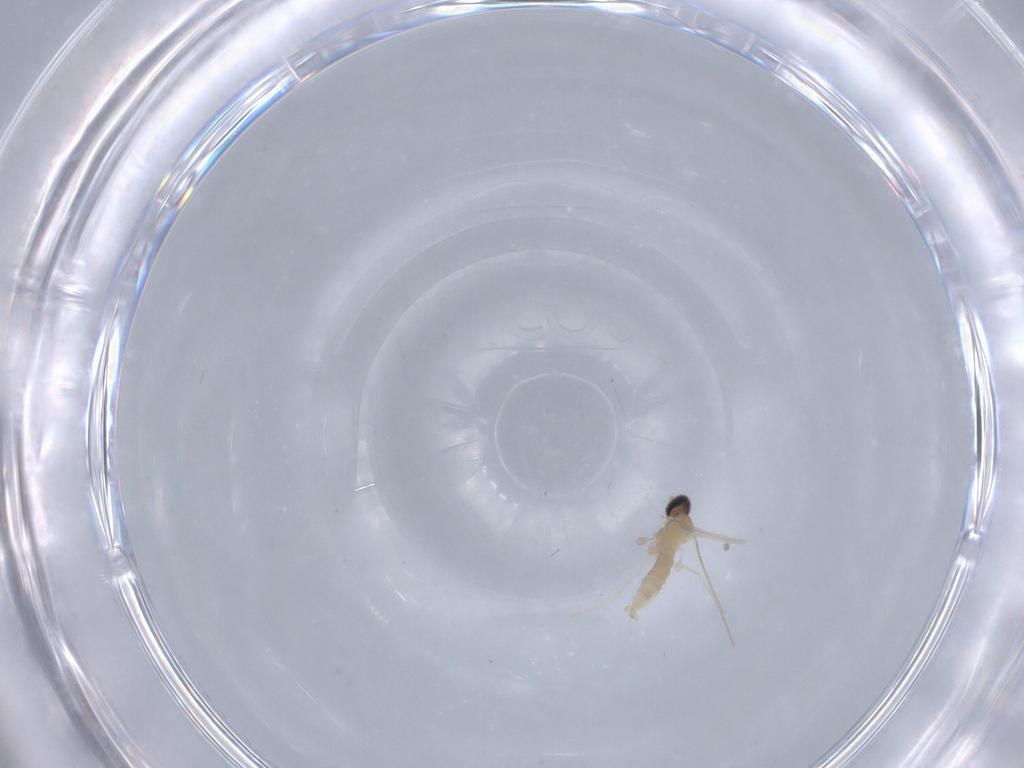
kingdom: Animalia
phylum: Arthropoda
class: Insecta
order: Diptera
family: Cecidomyiidae
